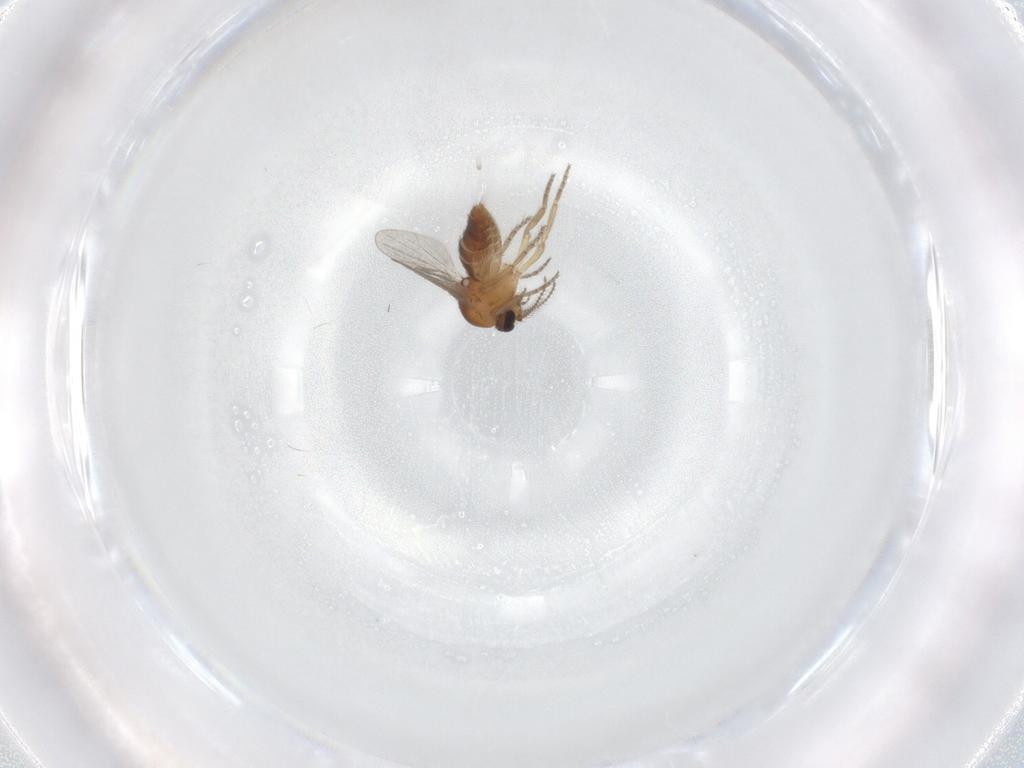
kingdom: Animalia
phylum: Arthropoda
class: Insecta
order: Diptera
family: Ceratopogonidae
